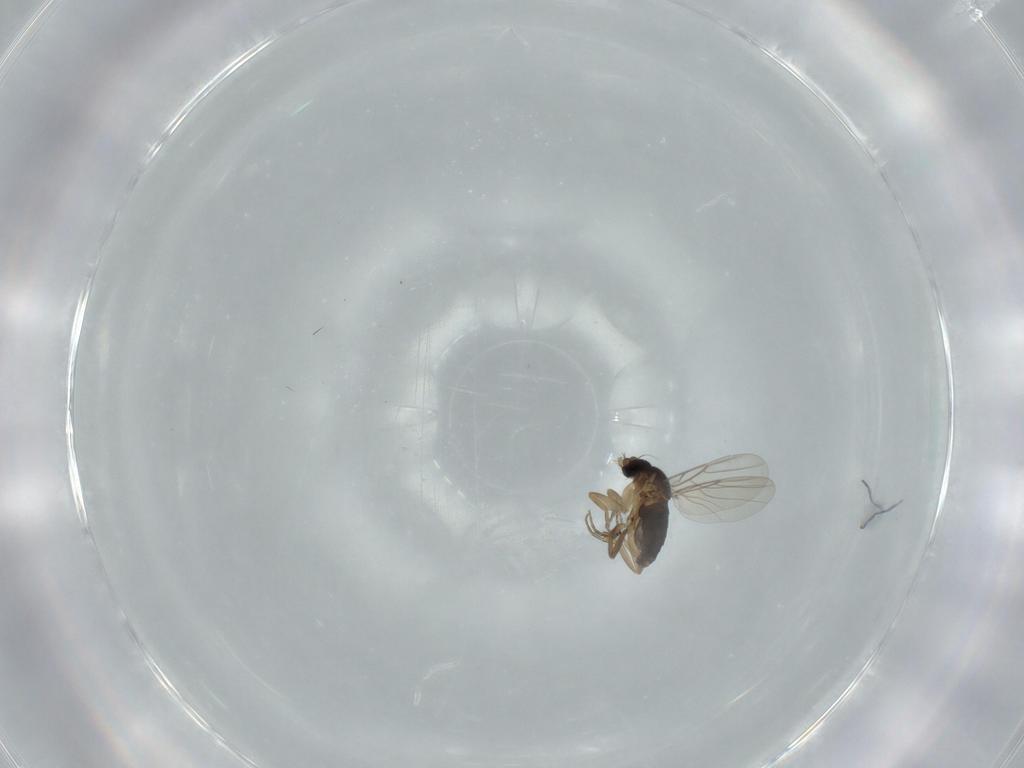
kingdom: Animalia
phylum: Arthropoda
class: Insecta
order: Diptera
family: Phoridae
